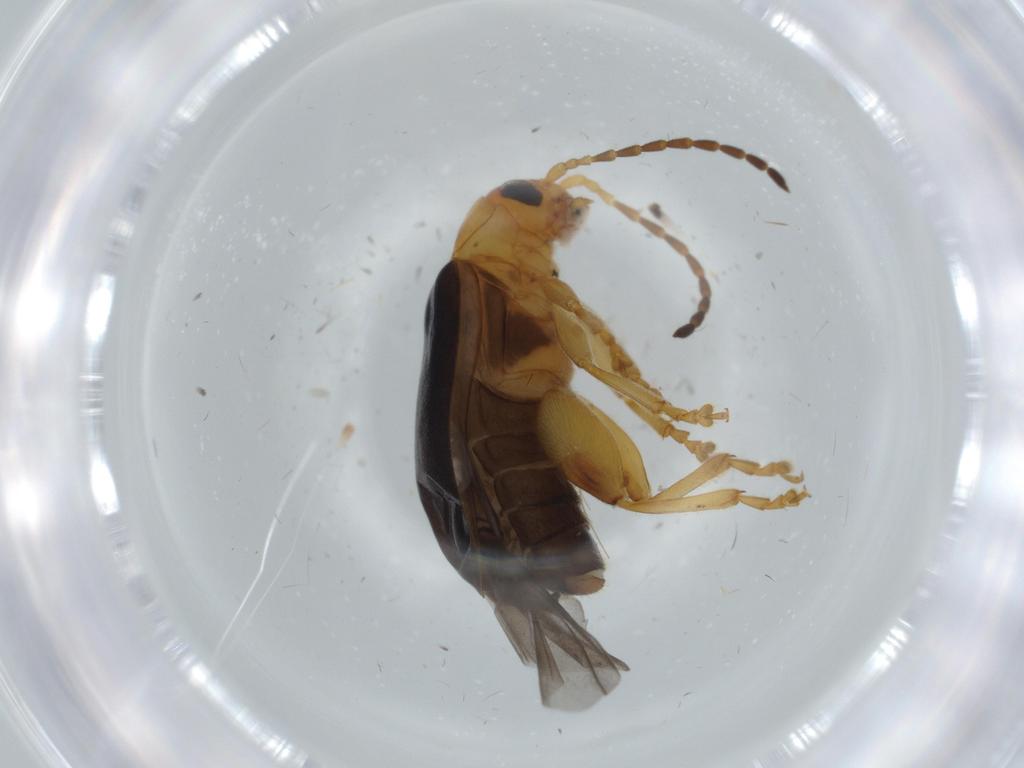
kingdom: Animalia
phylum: Arthropoda
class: Insecta
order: Coleoptera
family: Chrysomelidae
